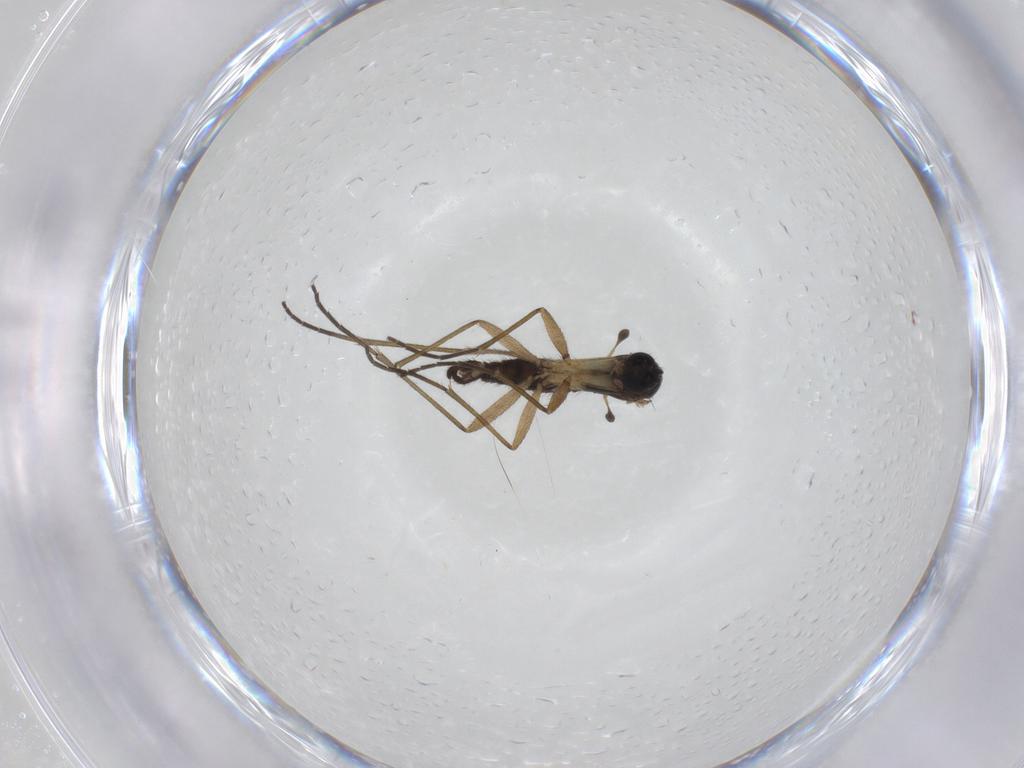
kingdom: Animalia
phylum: Arthropoda
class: Insecta
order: Diptera
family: Sciaridae
